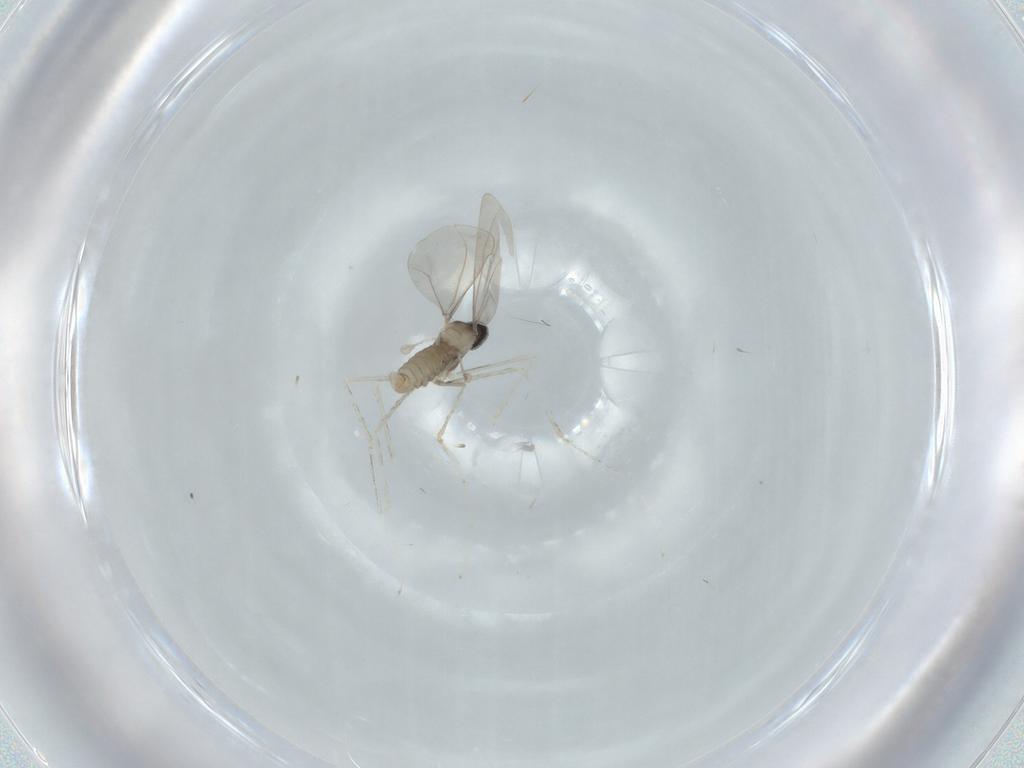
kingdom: Animalia
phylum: Arthropoda
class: Insecta
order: Diptera
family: Cecidomyiidae
